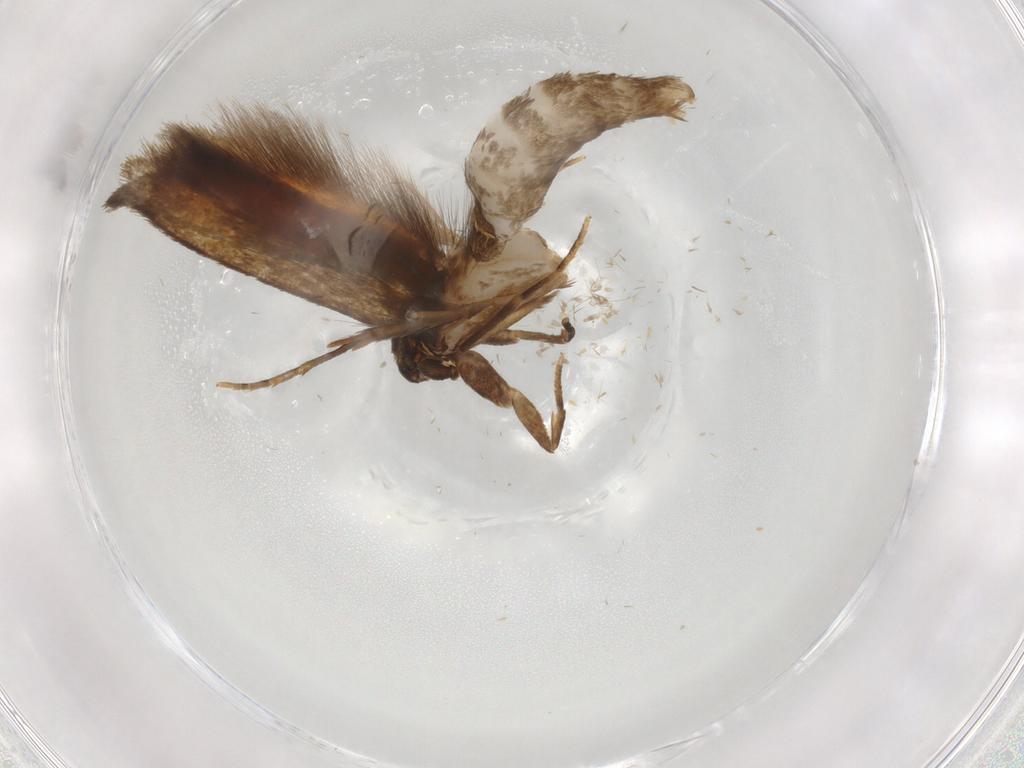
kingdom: Animalia
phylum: Arthropoda
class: Insecta
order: Lepidoptera
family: Tineidae
